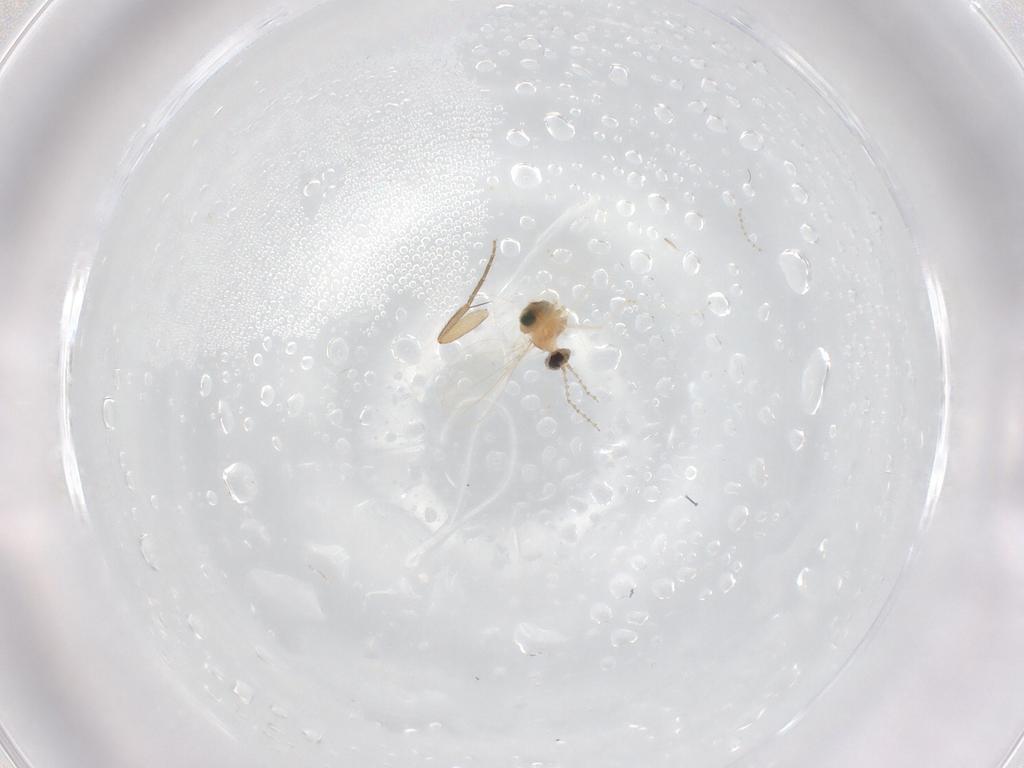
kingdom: Animalia
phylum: Arthropoda
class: Insecta
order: Diptera
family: Cecidomyiidae
